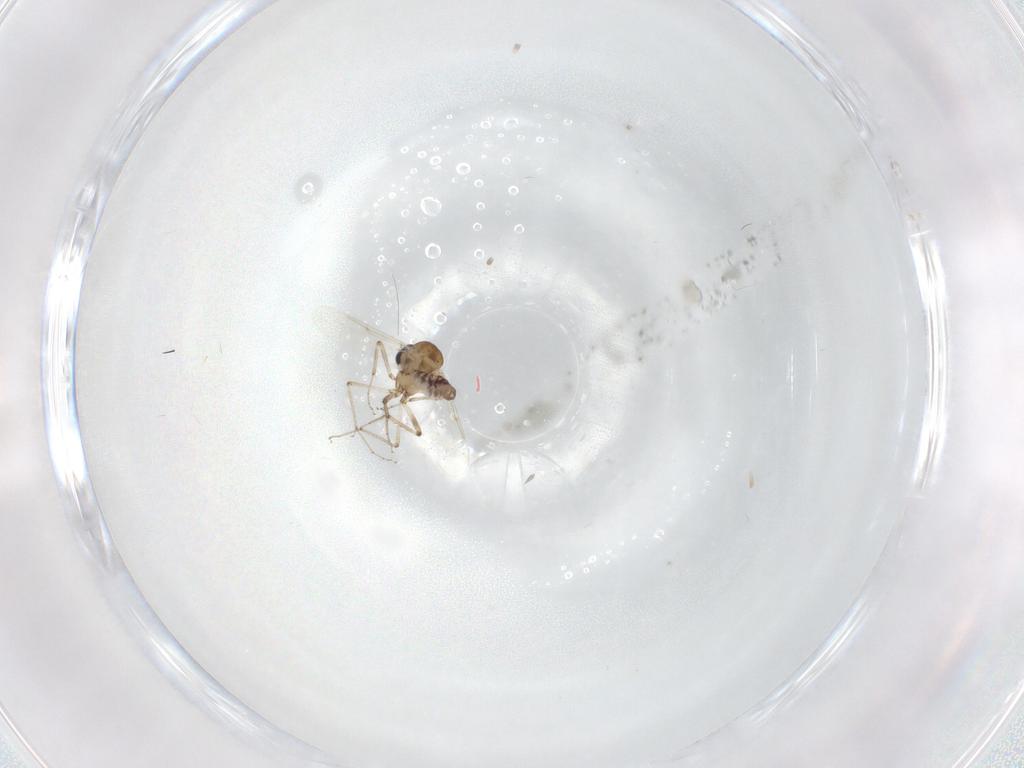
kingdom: Animalia
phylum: Arthropoda
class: Insecta
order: Diptera
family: Ceratopogonidae
